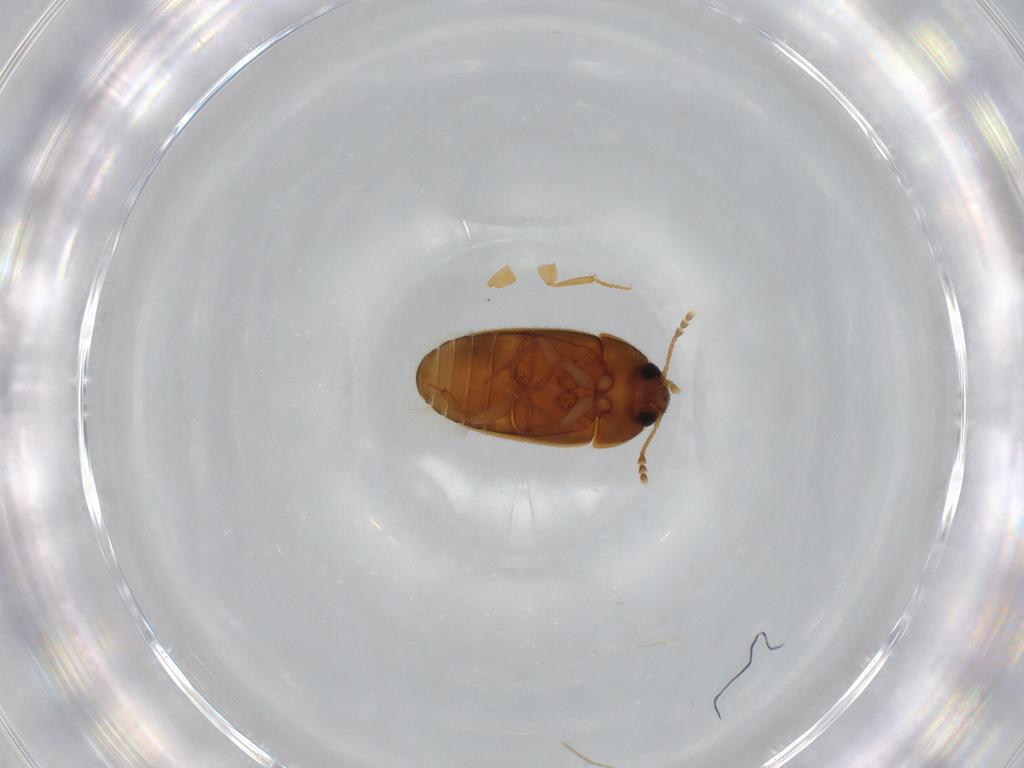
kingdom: Animalia
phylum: Arthropoda
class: Insecta
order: Coleoptera
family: Mycetophagidae
